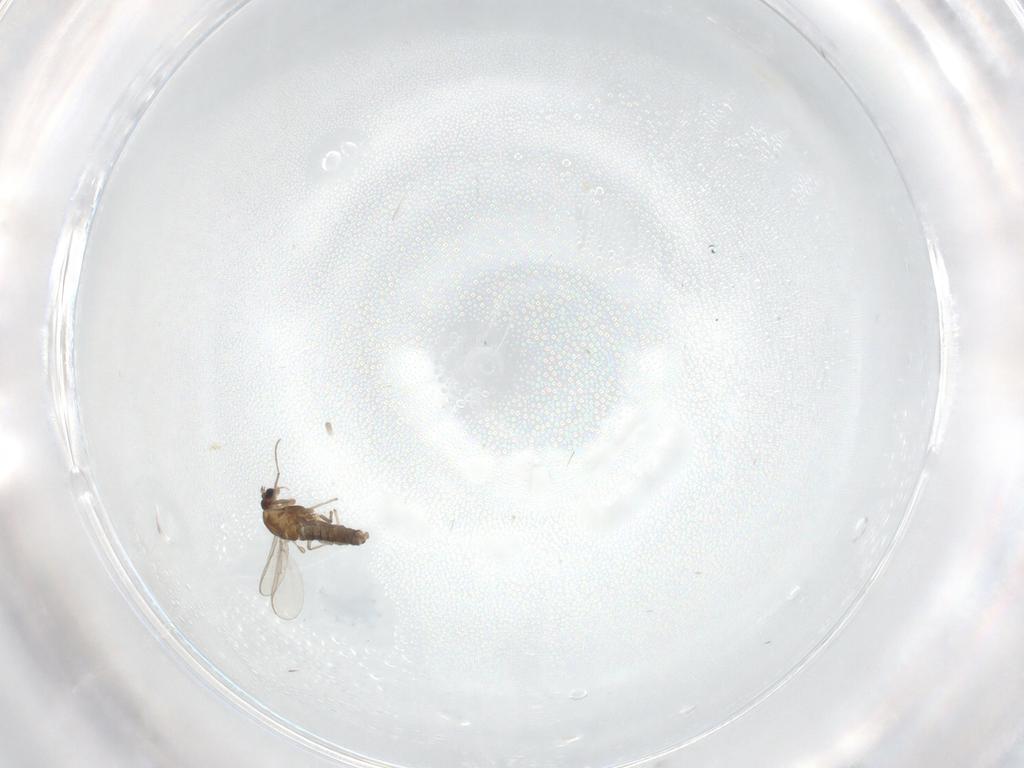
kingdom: Animalia
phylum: Arthropoda
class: Insecta
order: Diptera
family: Chironomidae
